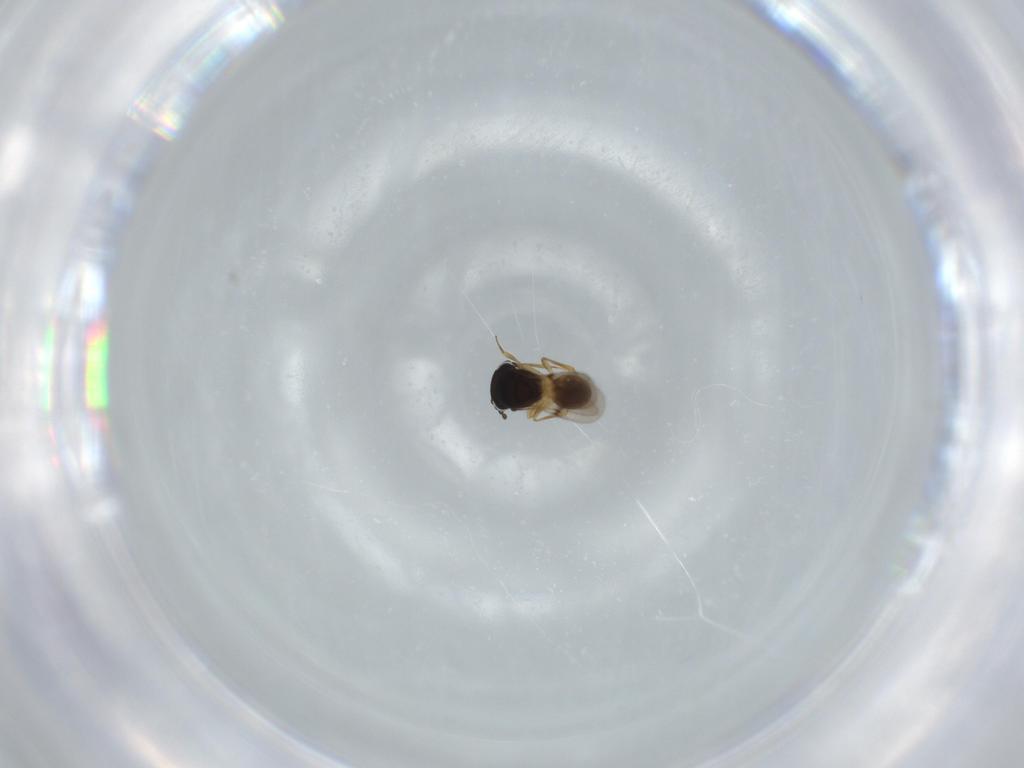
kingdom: Animalia
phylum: Arthropoda
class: Arachnida
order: Araneae
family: Pholcidae
